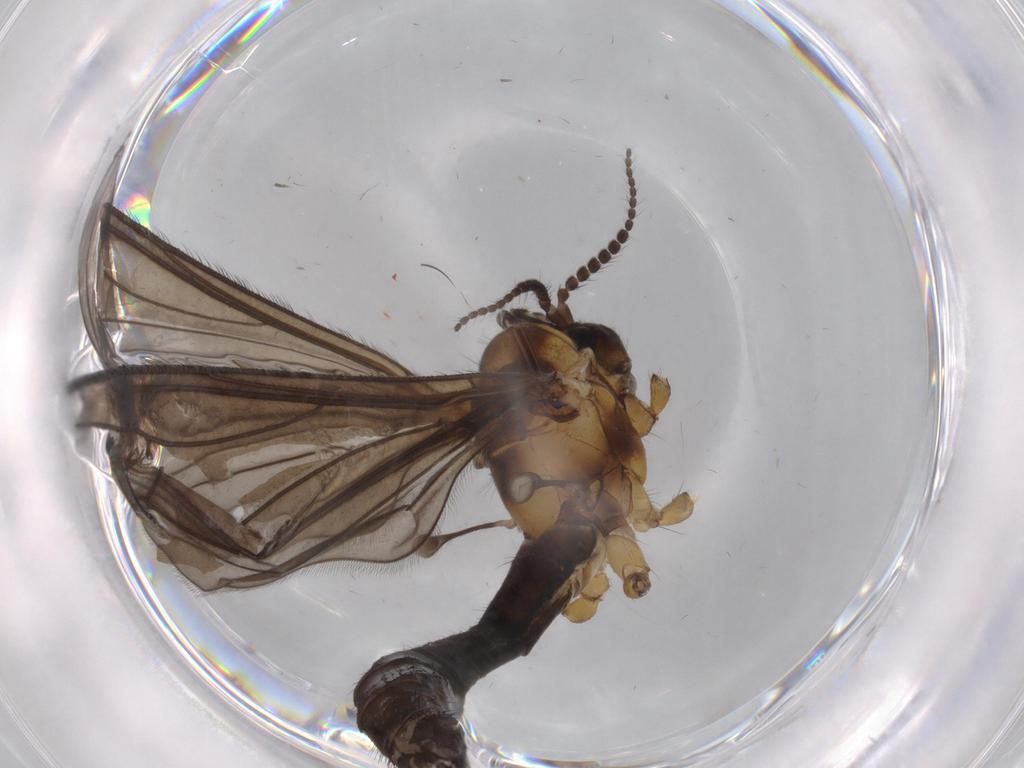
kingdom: Animalia
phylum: Arthropoda
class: Insecta
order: Diptera
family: Limoniidae
